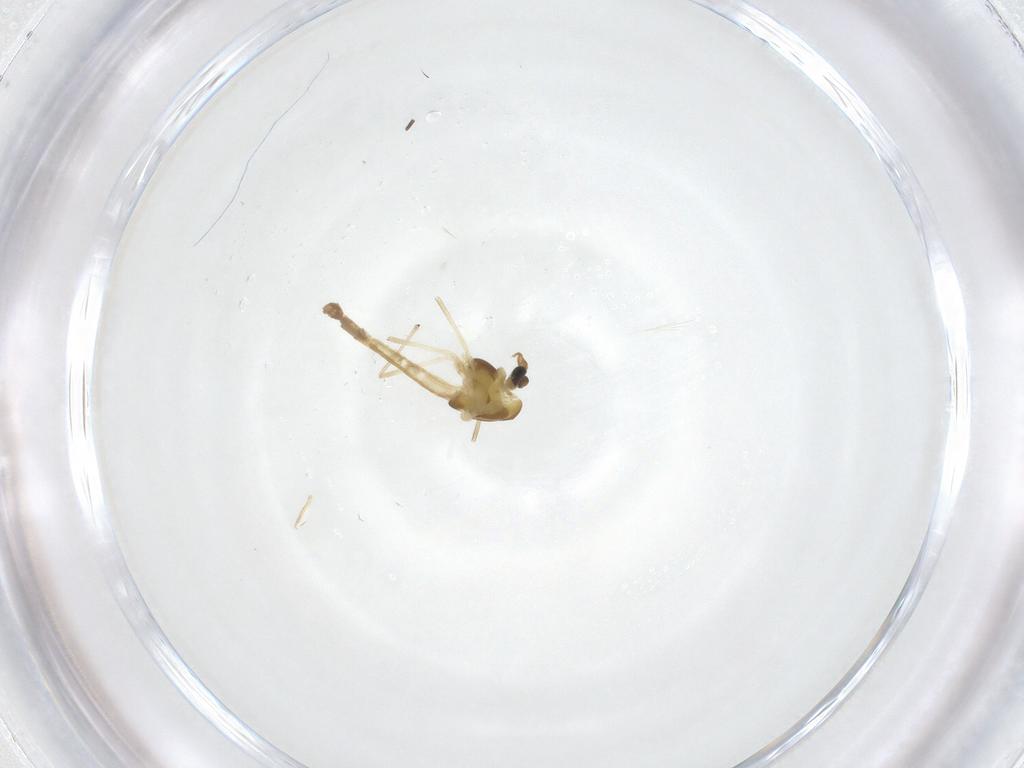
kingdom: Animalia
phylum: Arthropoda
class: Insecta
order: Diptera
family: Chironomidae
